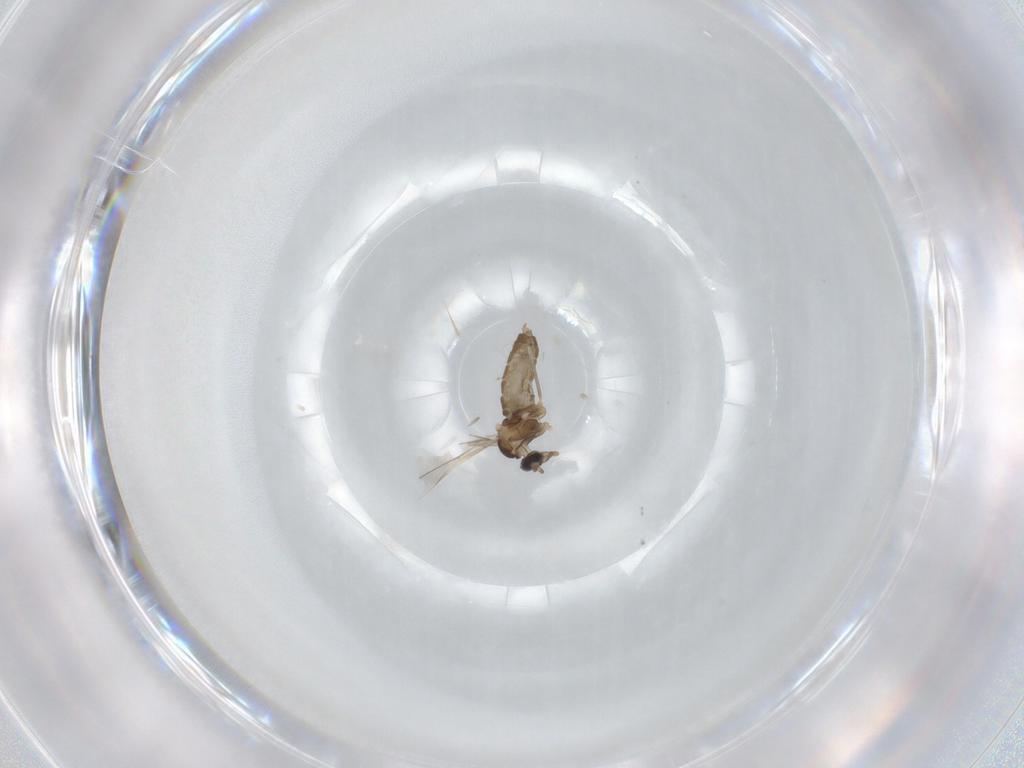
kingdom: Animalia
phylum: Arthropoda
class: Insecta
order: Diptera
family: Cecidomyiidae
